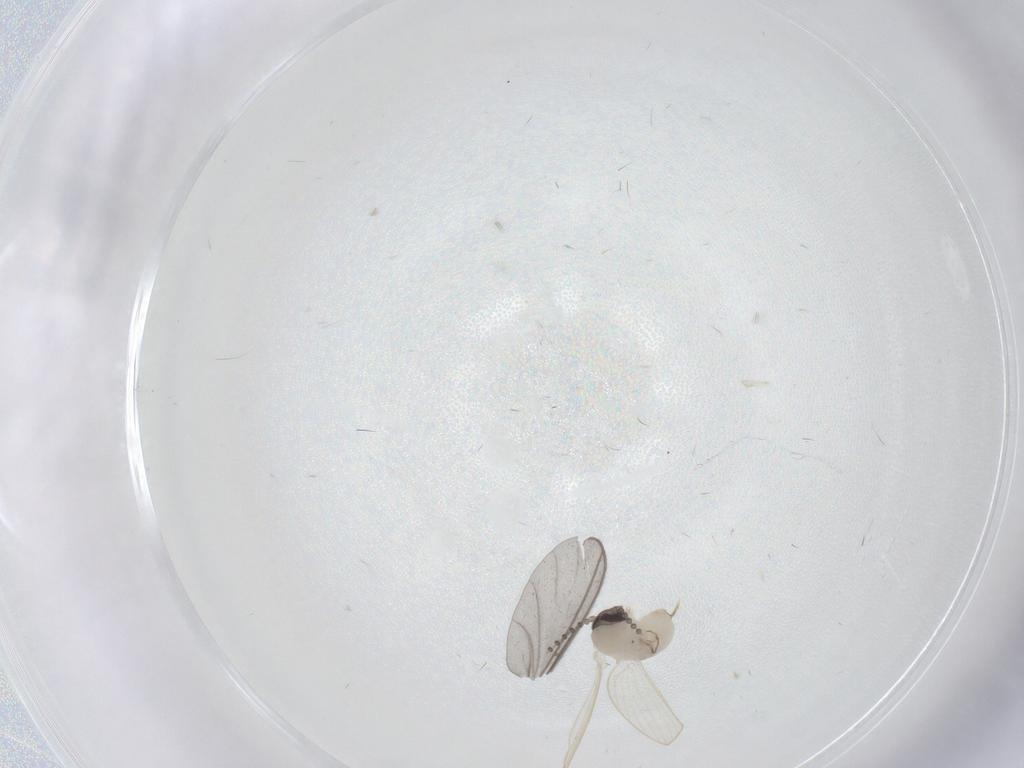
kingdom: Animalia
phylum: Arthropoda
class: Insecta
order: Diptera
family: Psychodidae
